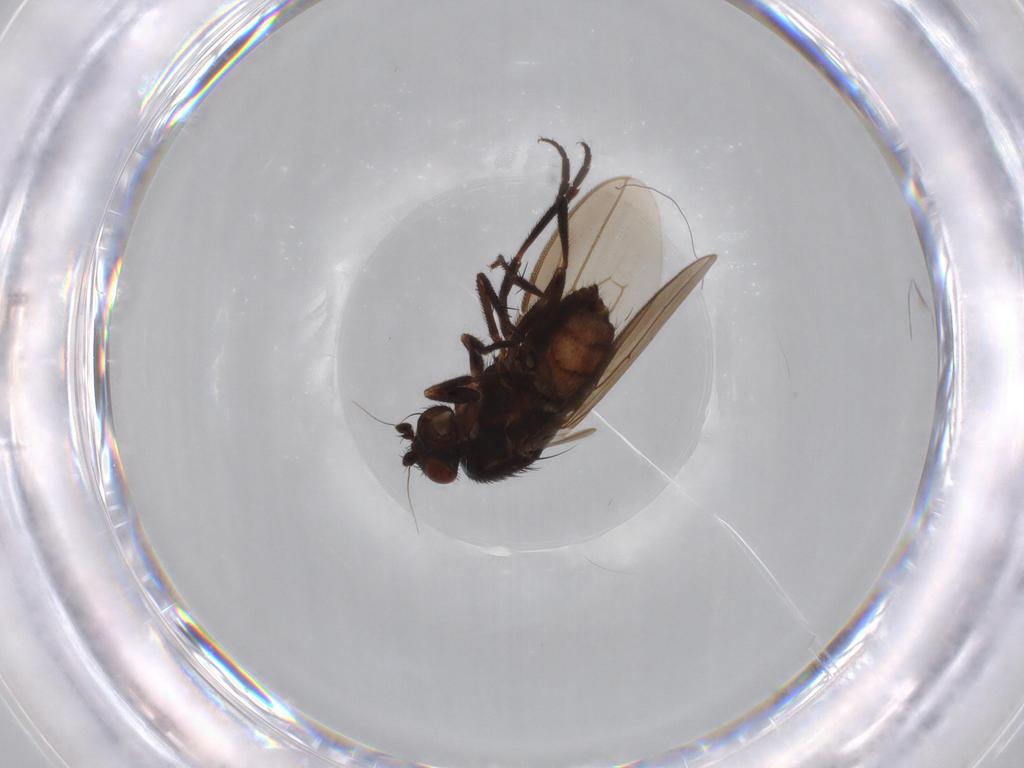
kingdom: Animalia
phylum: Arthropoda
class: Insecta
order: Diptera
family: Sphaeroceridae
